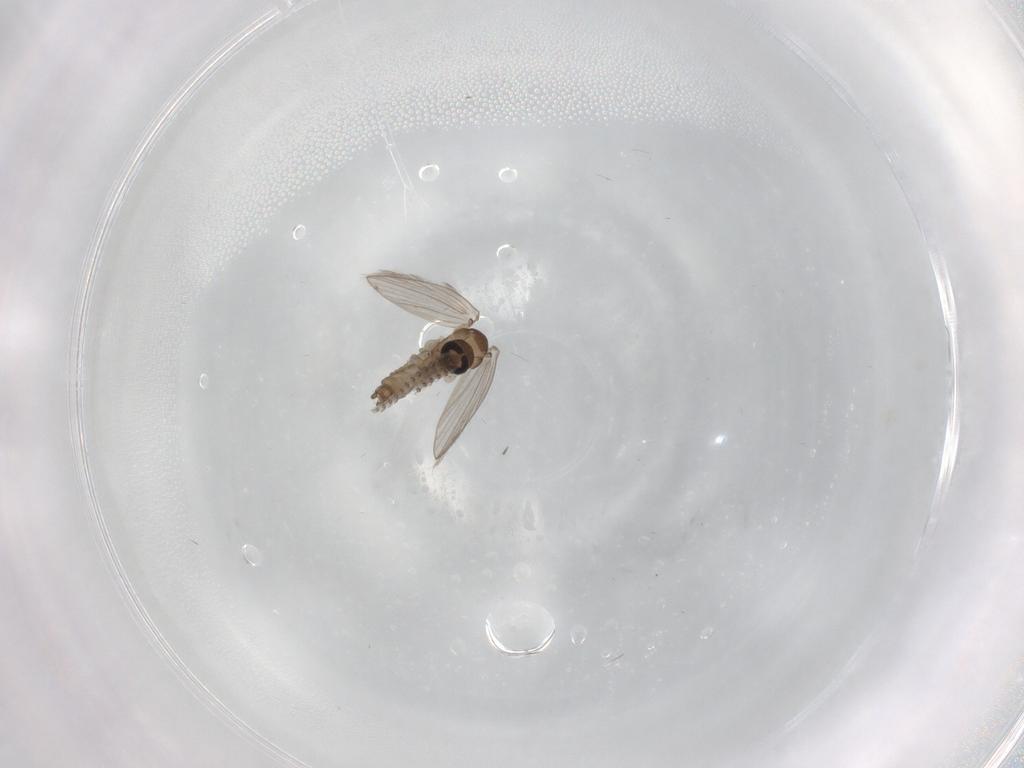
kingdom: Animalia
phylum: Arthropoda
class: Insecta
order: Diptera
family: Psychodidae
